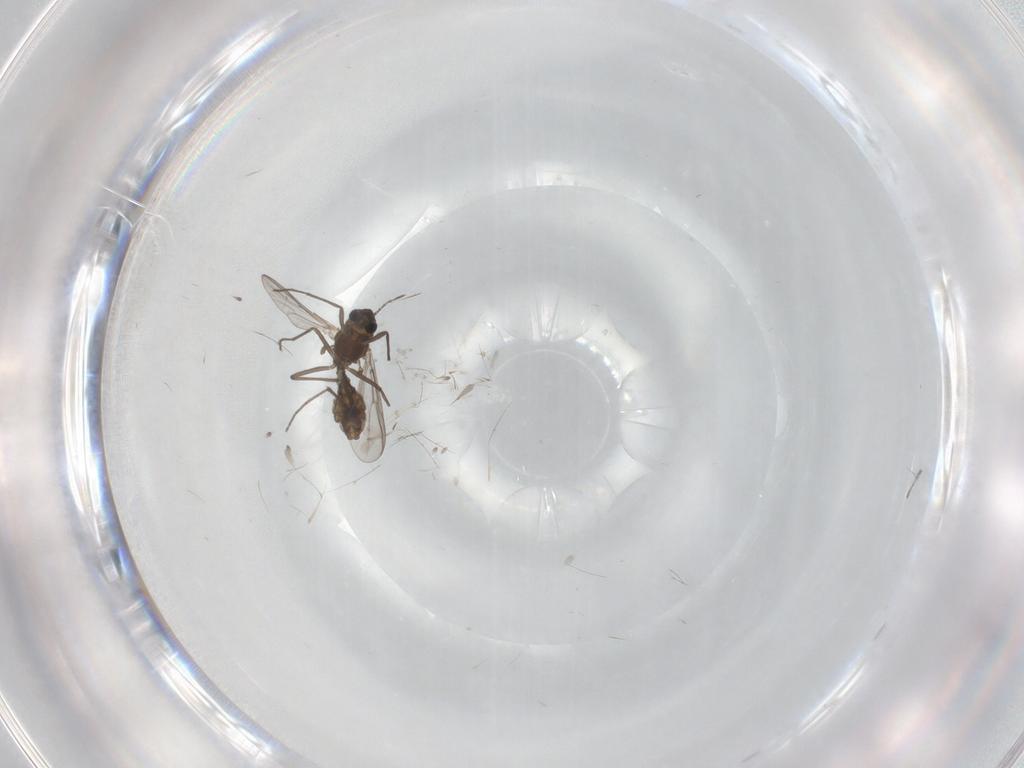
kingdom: Animalia
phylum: Arthropoda
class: Insecta
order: Diptera
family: Chironomidae
